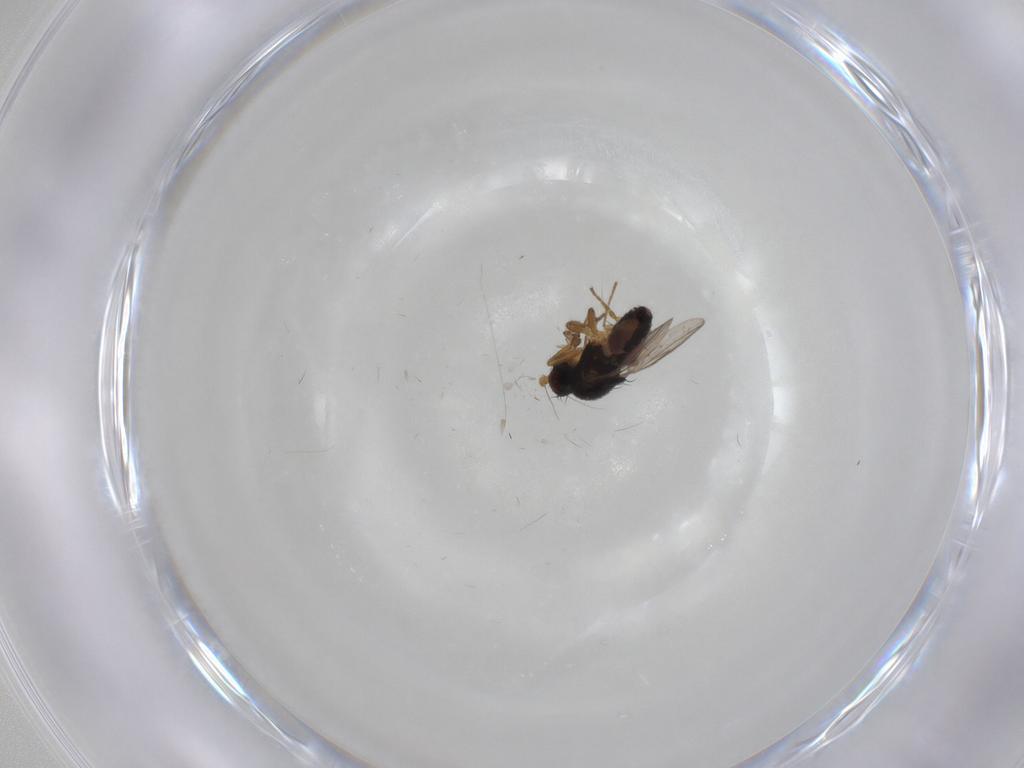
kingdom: Animalia
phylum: Arthropoda
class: Insecta
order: Diptera
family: Sphaeroceridae
